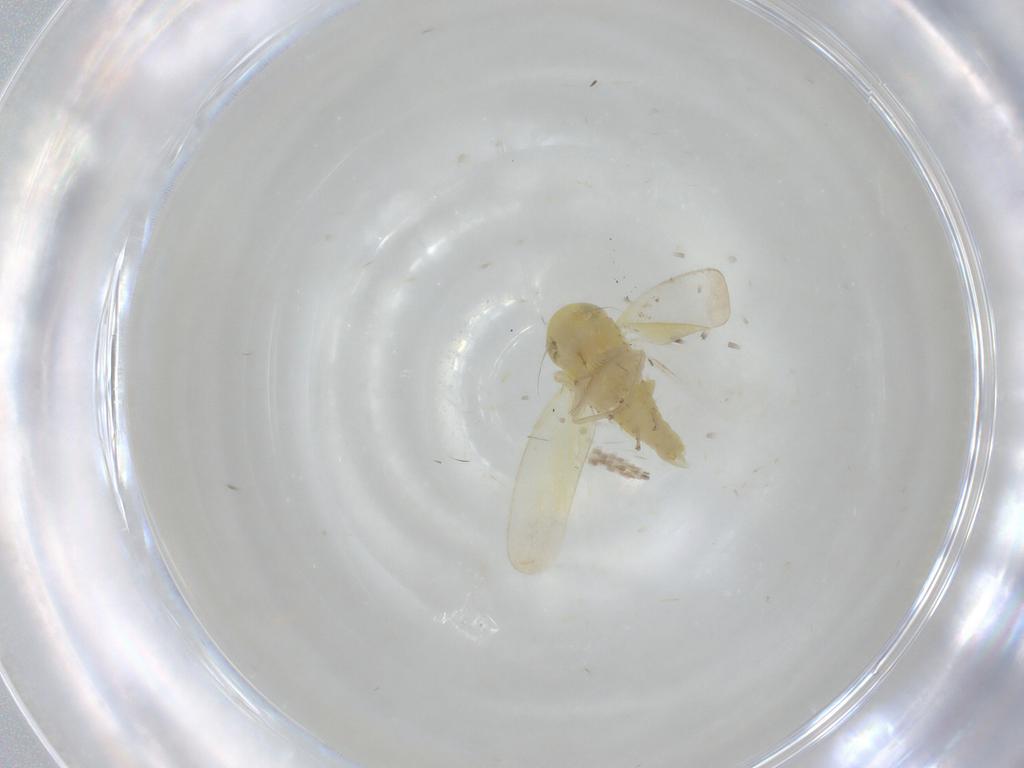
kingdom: Animalia
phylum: Arthropoda
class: Insecta
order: Hemiptera
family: Cicadellidae
